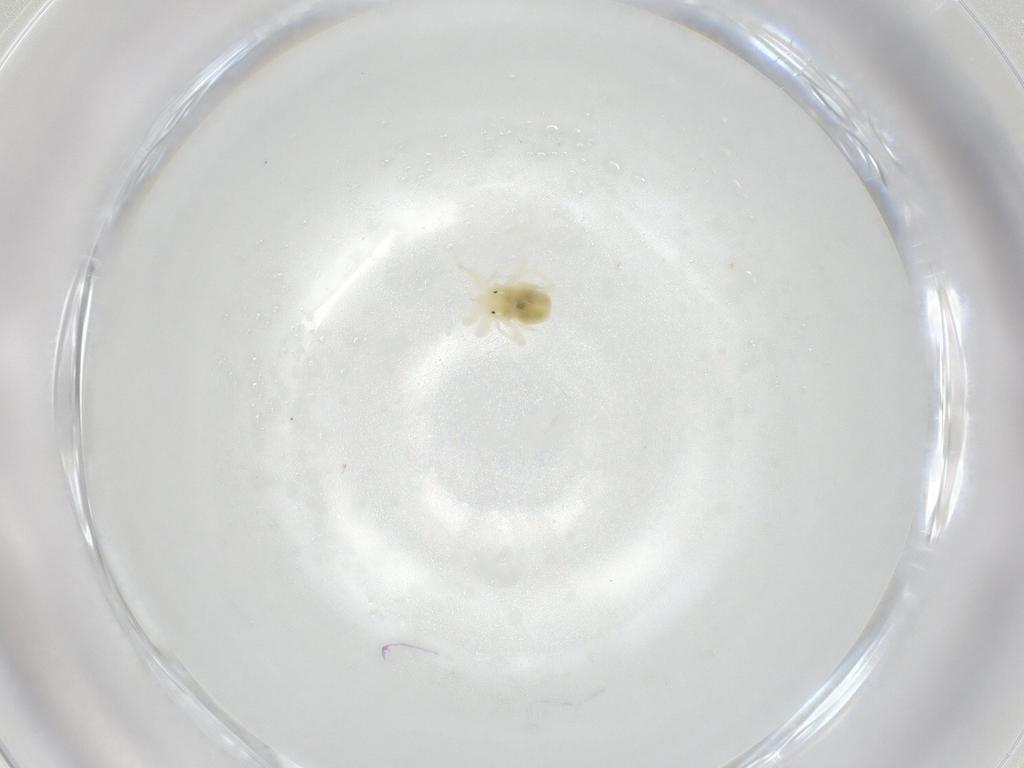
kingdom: Animalia
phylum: Arthropoda
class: Arachnida
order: Trombidiformes
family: Anystidae
